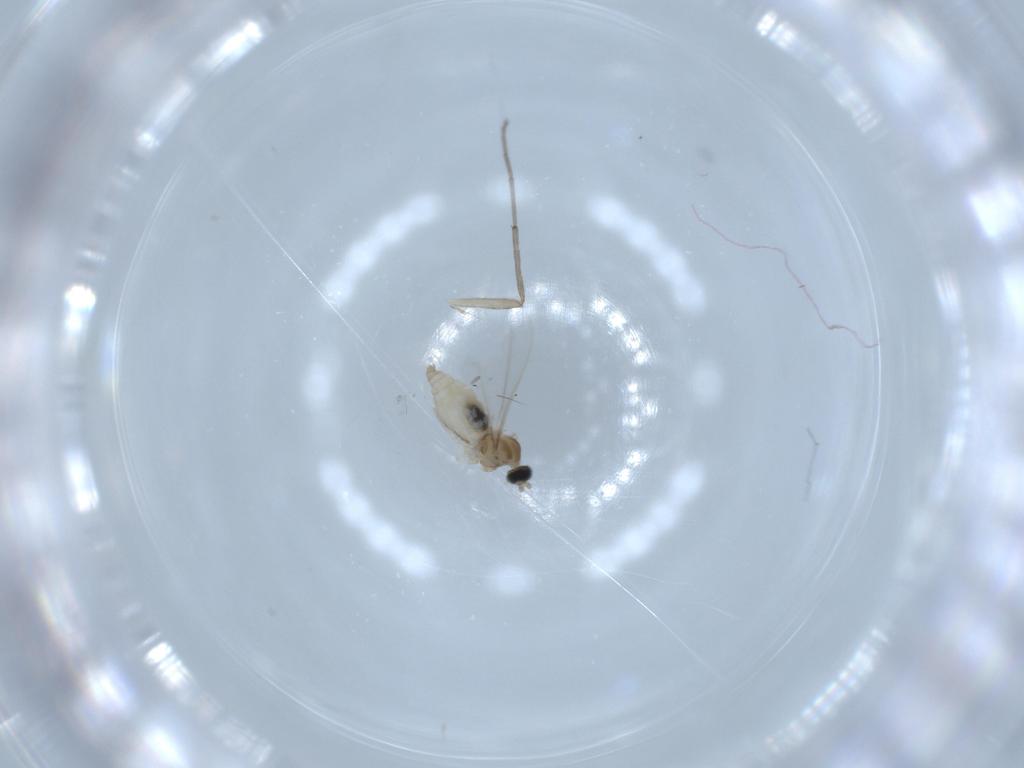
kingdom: Animalia
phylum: Arthropoda
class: Insecta
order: Diptera
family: Cecidomyiidae
